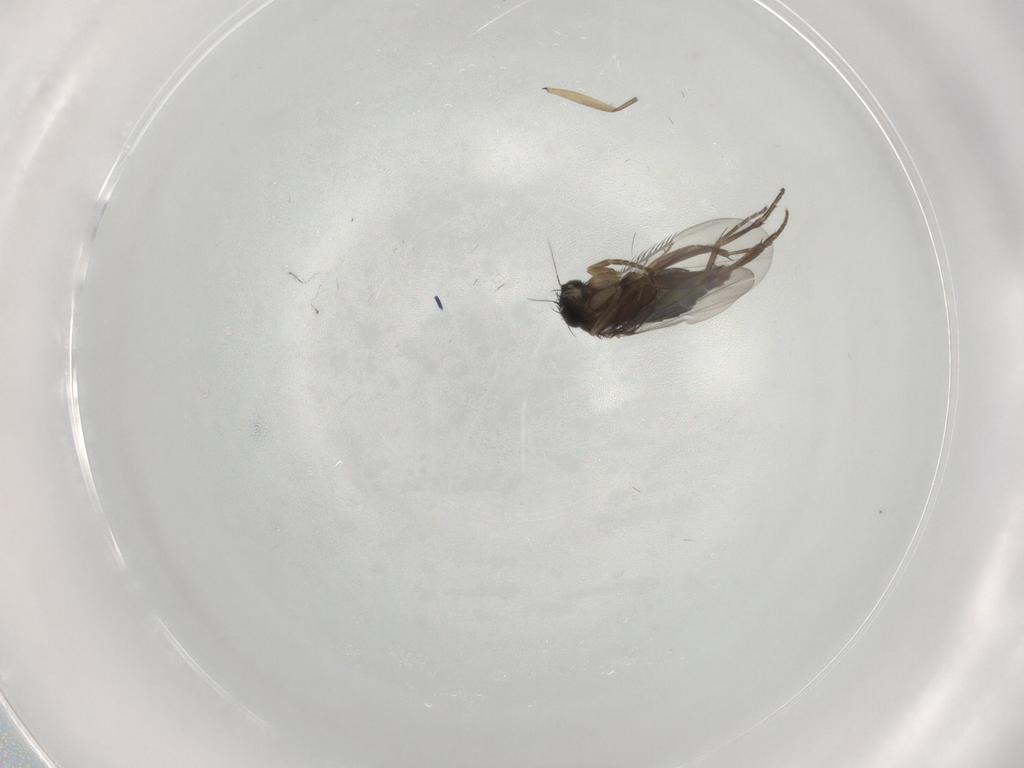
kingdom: Animalia
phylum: Arthropoda
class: Insecta
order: Diptera
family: Phoridae
